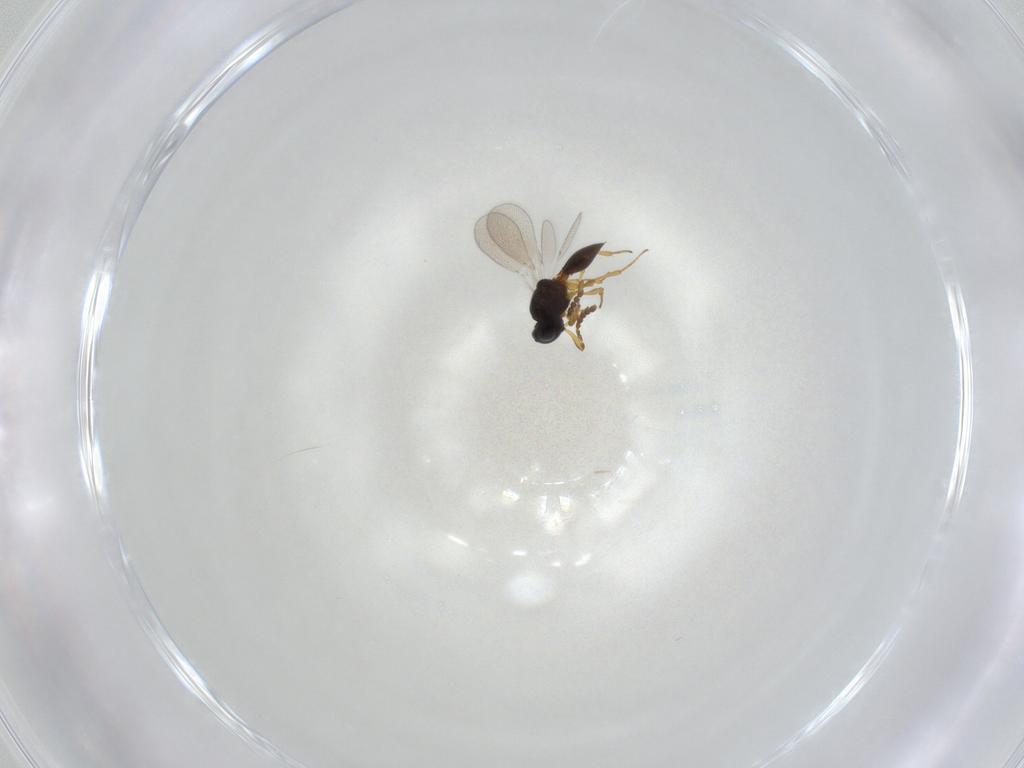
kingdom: Animalia
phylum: Arthropoda
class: Insecta
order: Hymenoptera
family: Platygastridae
